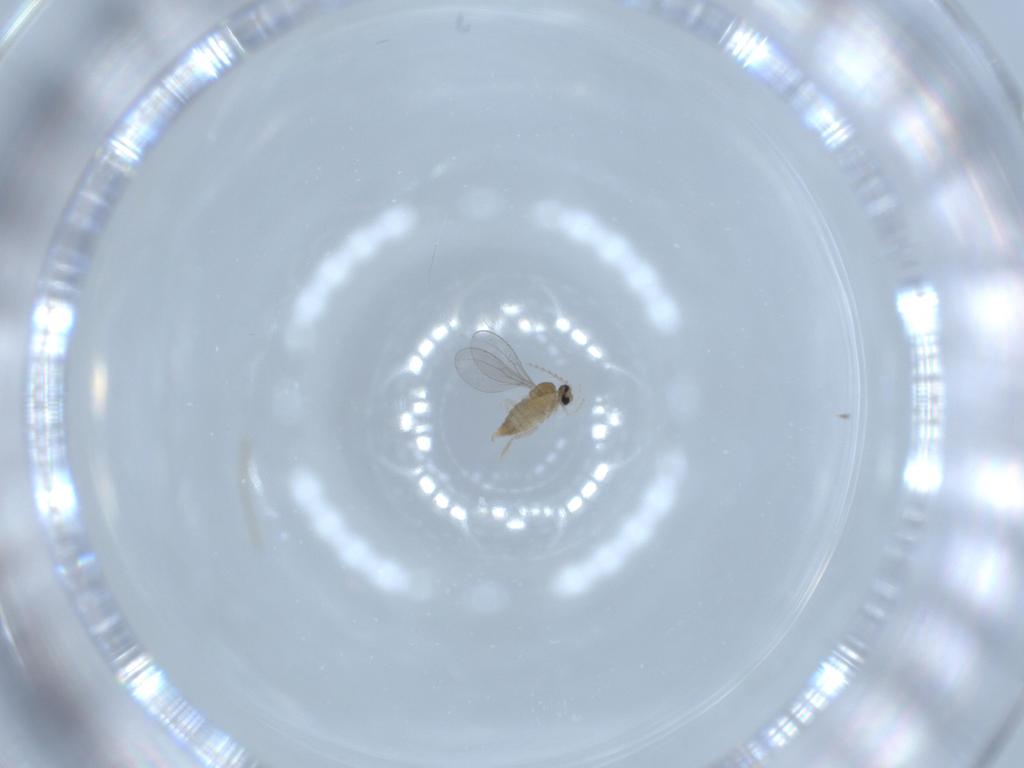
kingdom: Animalia
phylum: Arthropoda
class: Insecta
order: Diptera
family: Cecidomyiidae
